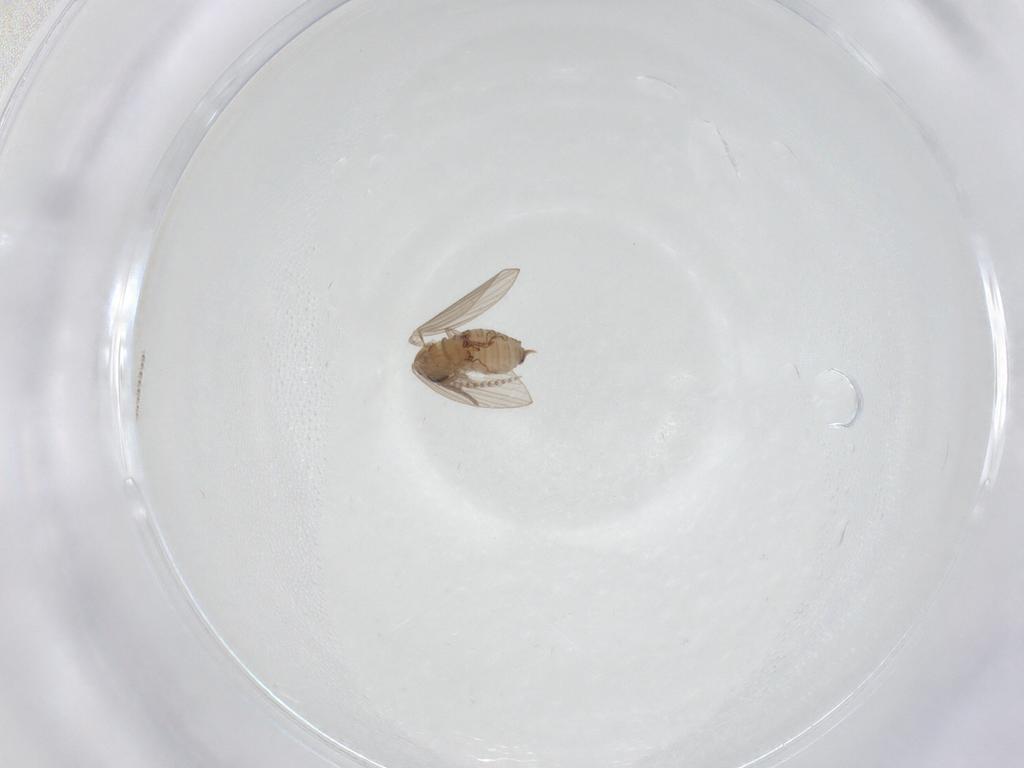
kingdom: Animalia
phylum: Arthropoda
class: Insecta
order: Diptera
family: Psychodidae
